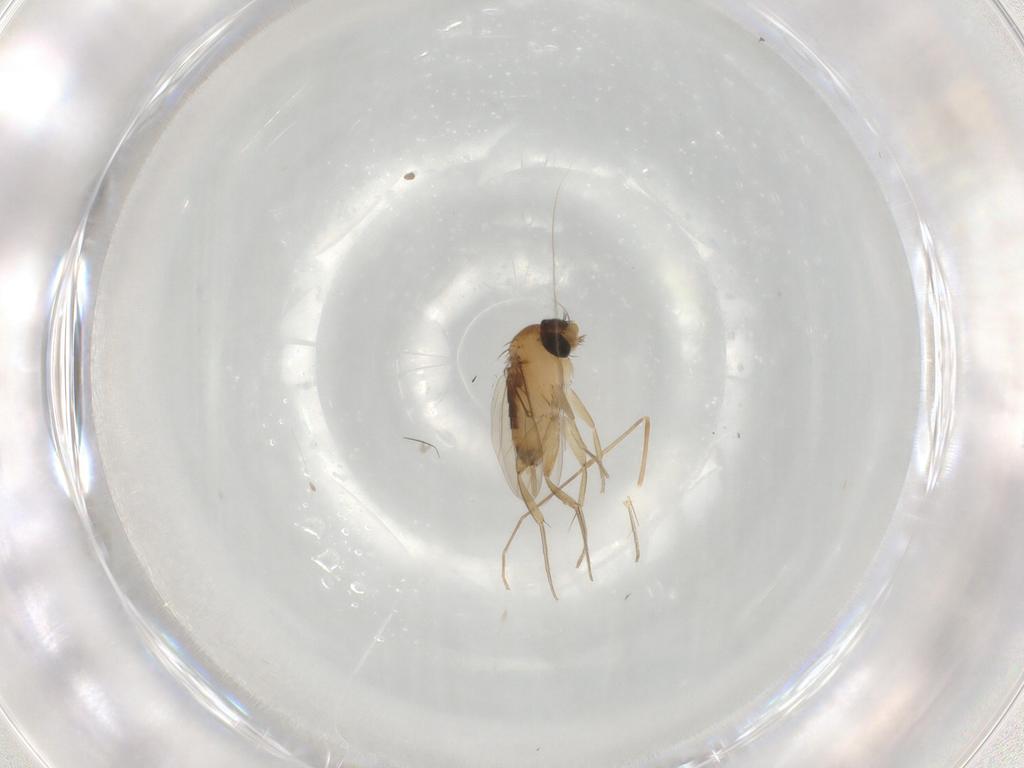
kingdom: Animalia
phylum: Arthropoda
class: Insecta
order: Diptera
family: Phoridae
